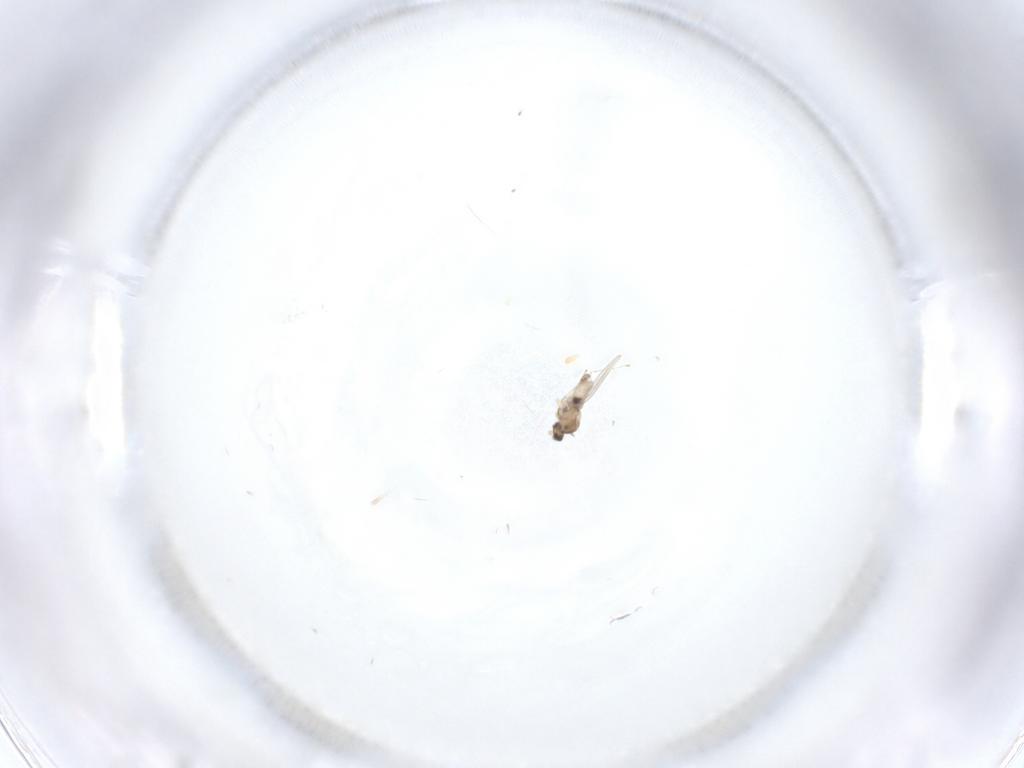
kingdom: Animalia
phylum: Arthropoda
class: Insecta
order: Diptera
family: Cecidomyiidae
